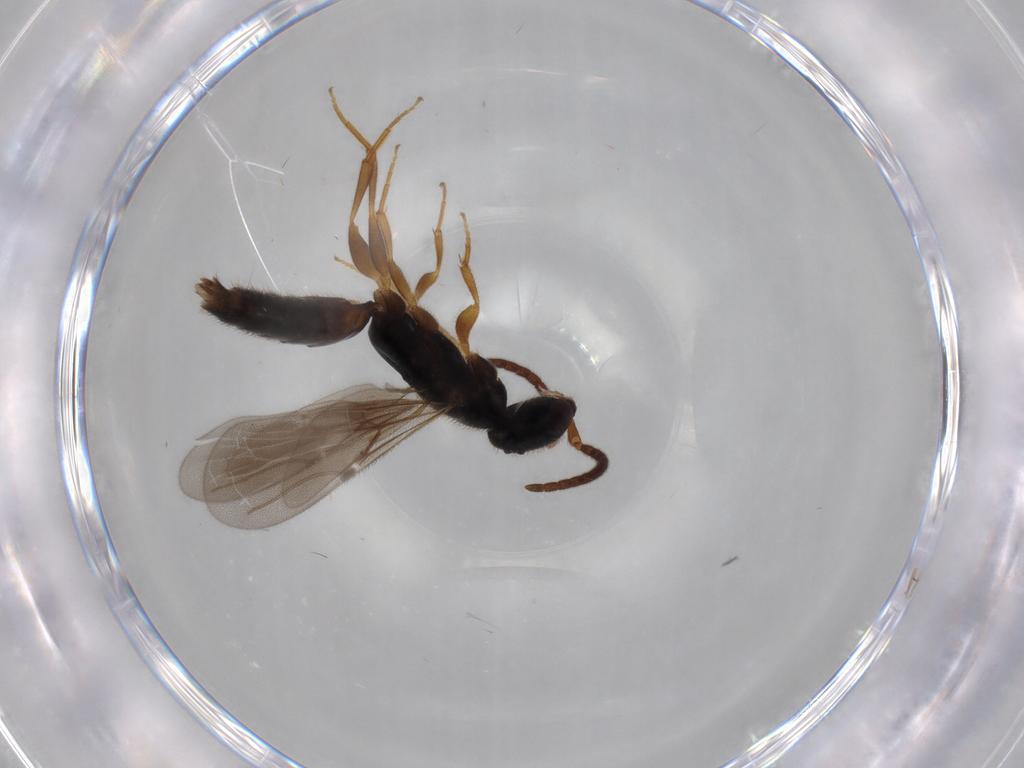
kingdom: Animalia
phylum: Arthropoda
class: Insecta
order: Hymenoptera
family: Bethylidae
